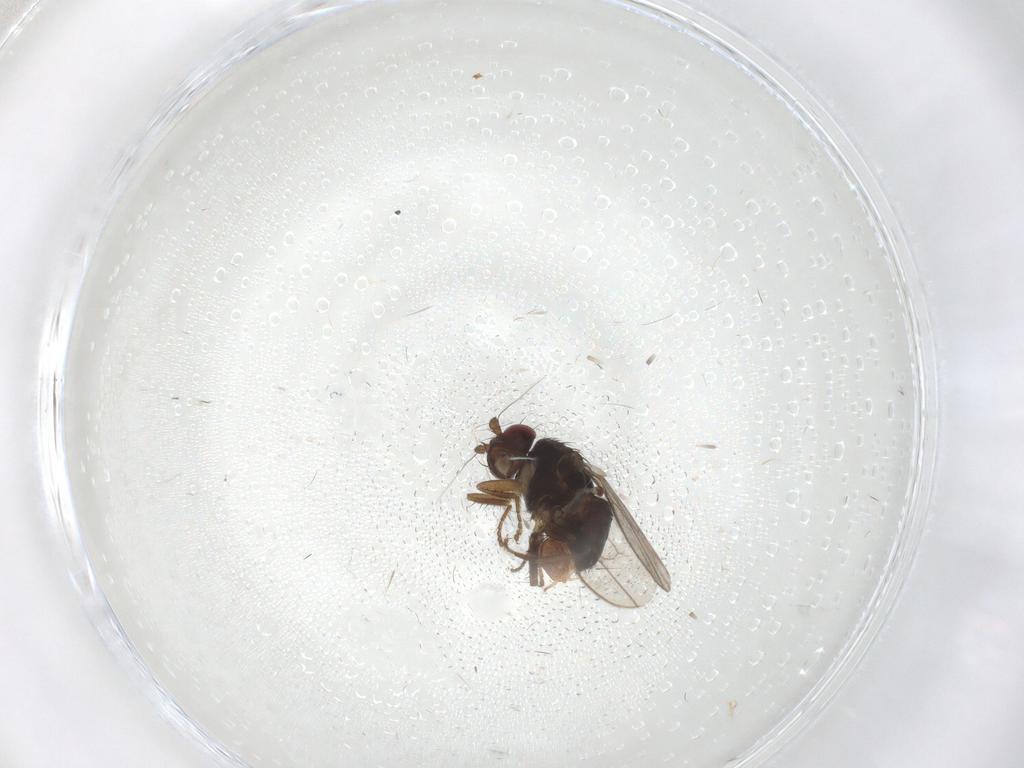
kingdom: Animalia
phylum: Arthropoda
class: Insecta
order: Diptera
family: Sphaeroceridae
